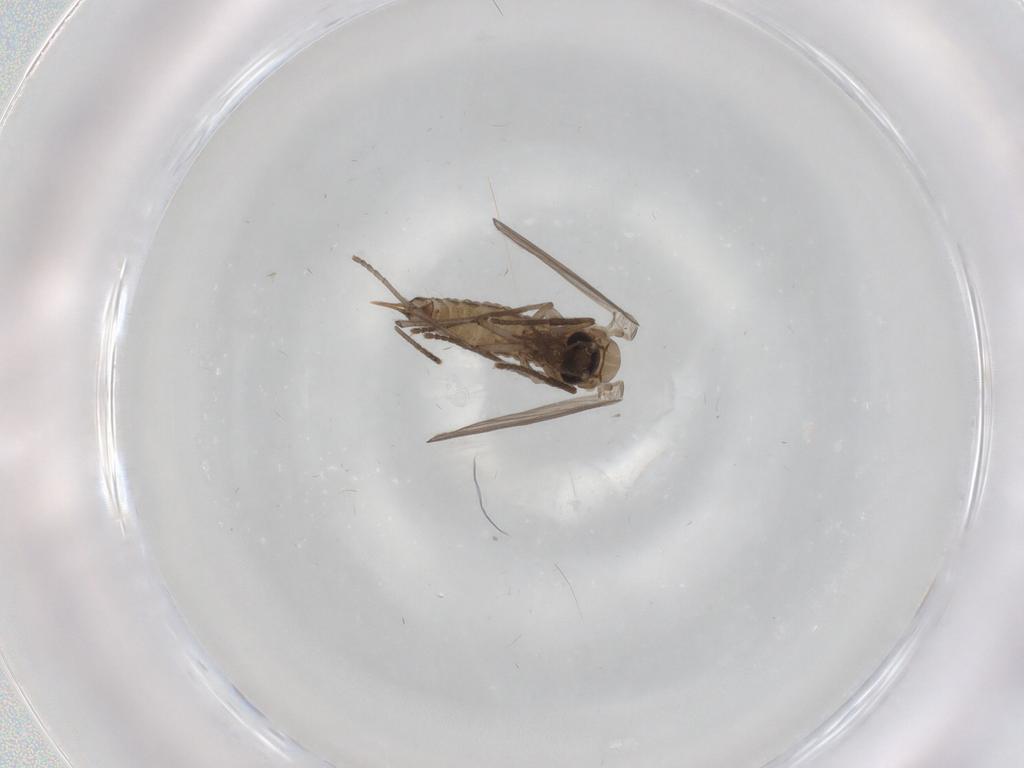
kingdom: Animalia
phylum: Arthropoda
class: Insecta
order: Diptera
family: Psychodidae
